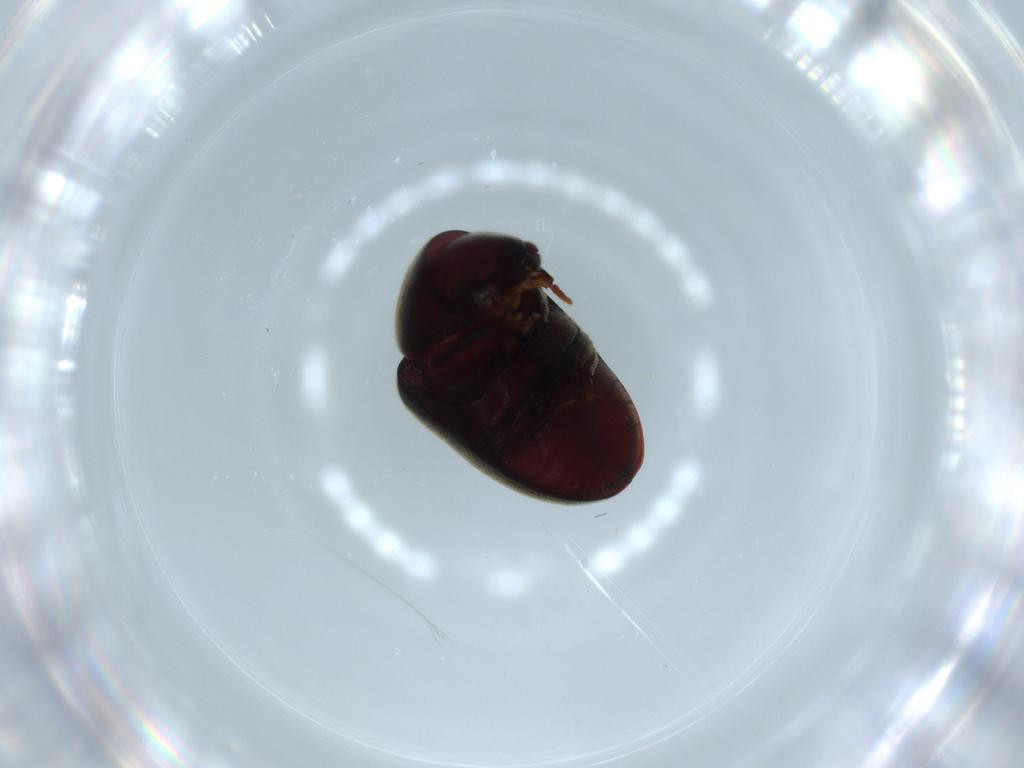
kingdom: Animalia
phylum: Arthropoda
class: Insecta
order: Coleoptera
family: Ptinidae
